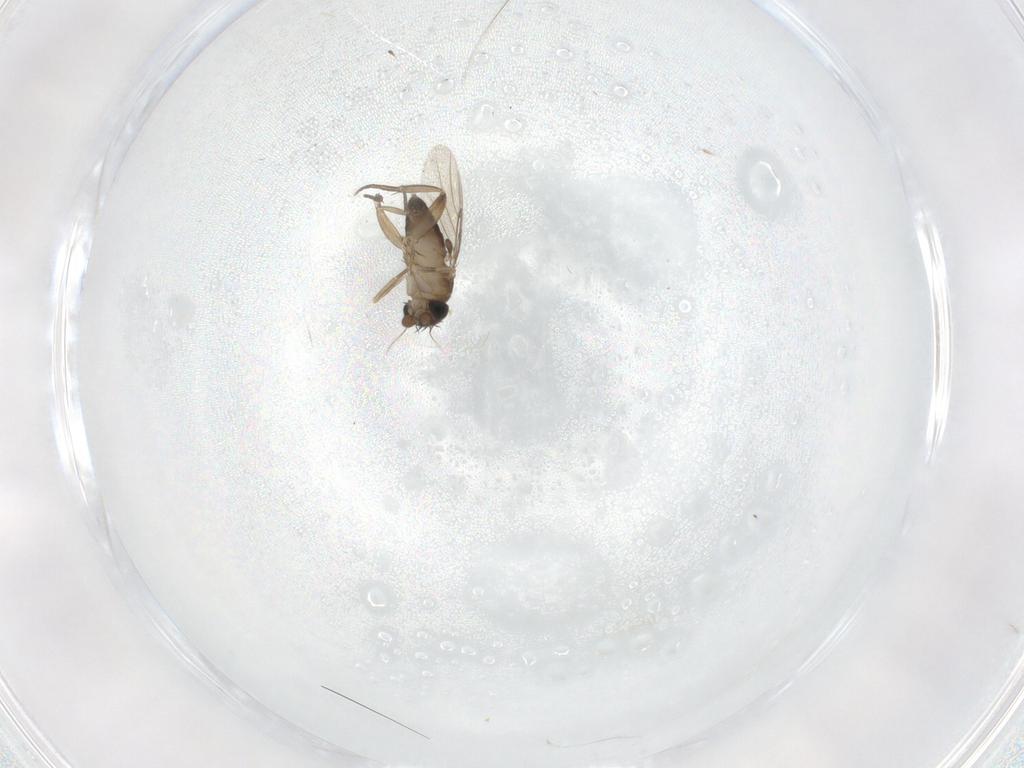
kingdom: Animalia
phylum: Arthropoda
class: Insecta
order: Diptera
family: Phoridae
